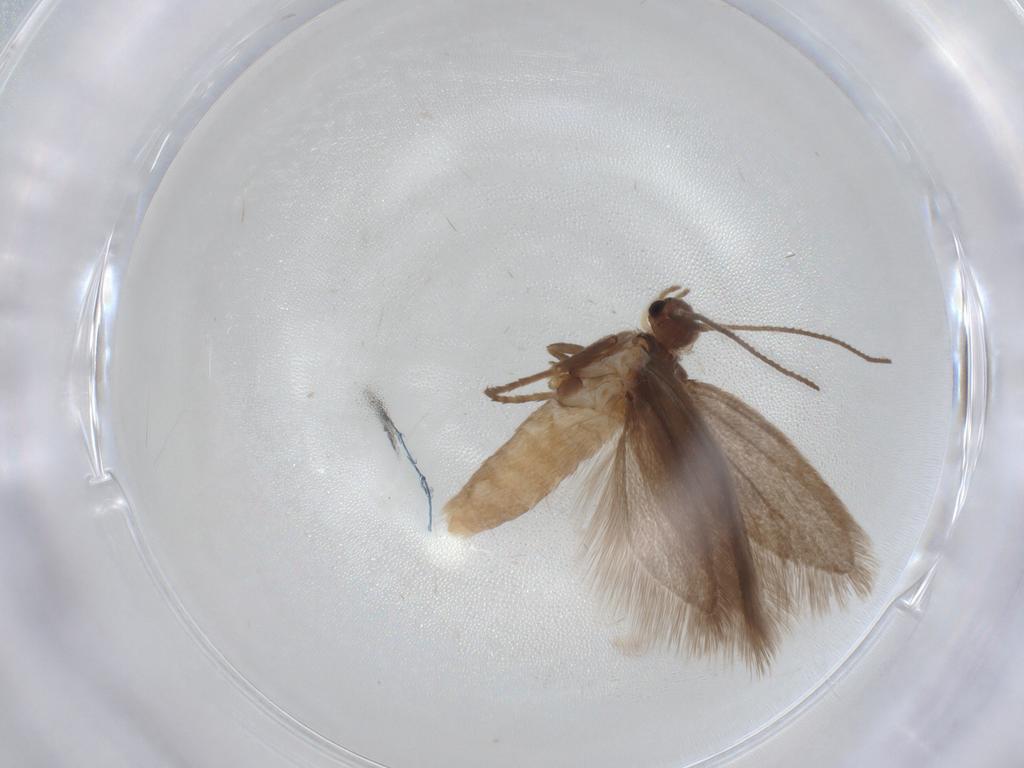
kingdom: Animalia
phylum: Arthropoda
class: Insecta
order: Lepidoptera
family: Limacodidae
